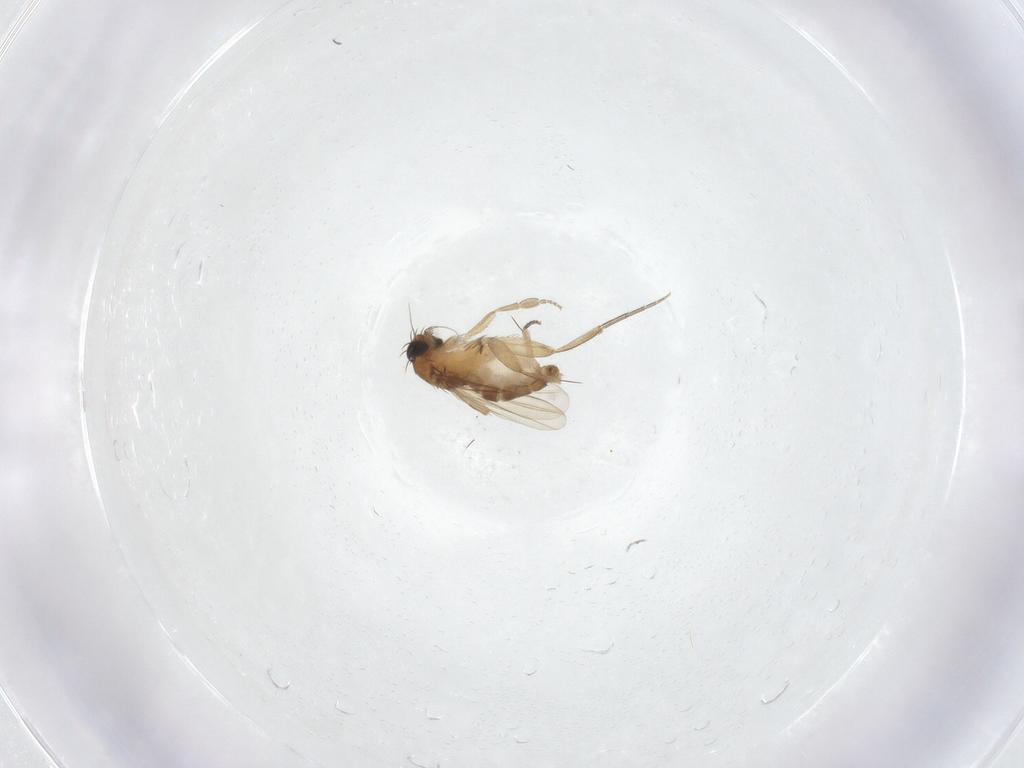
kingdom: Animalia
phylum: Arthropoda
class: Insecta
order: Diptera
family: Phoridae
